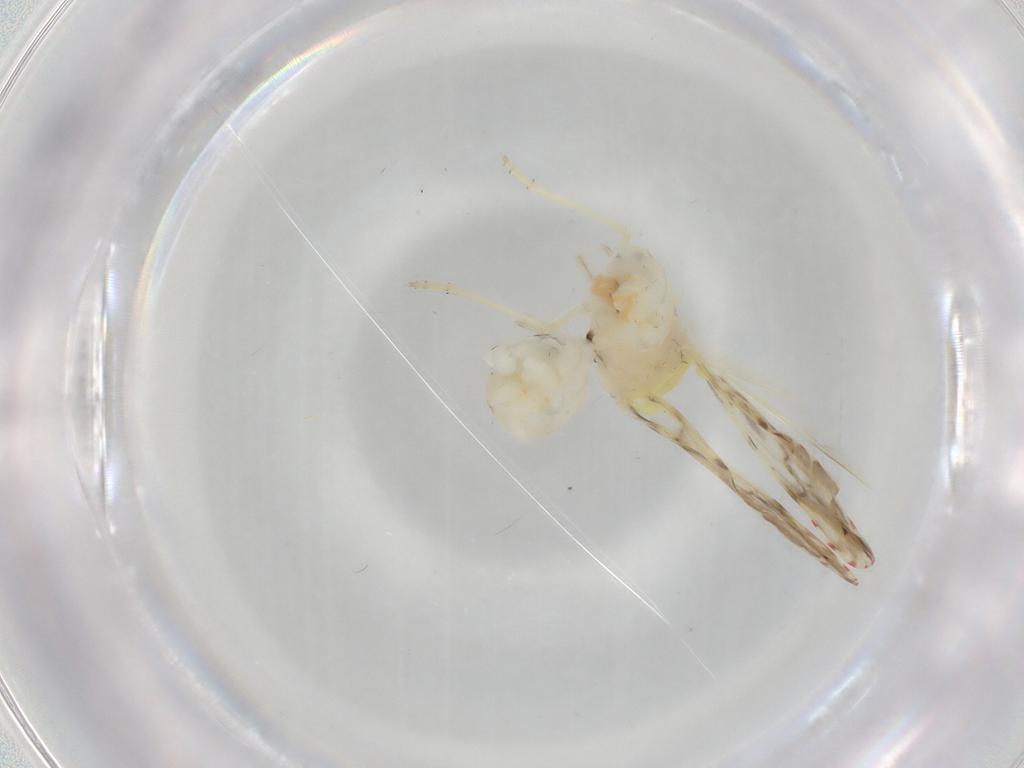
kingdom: Animalia
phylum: Arthropoda
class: Insecta
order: Hemiptera
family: Derbidae
